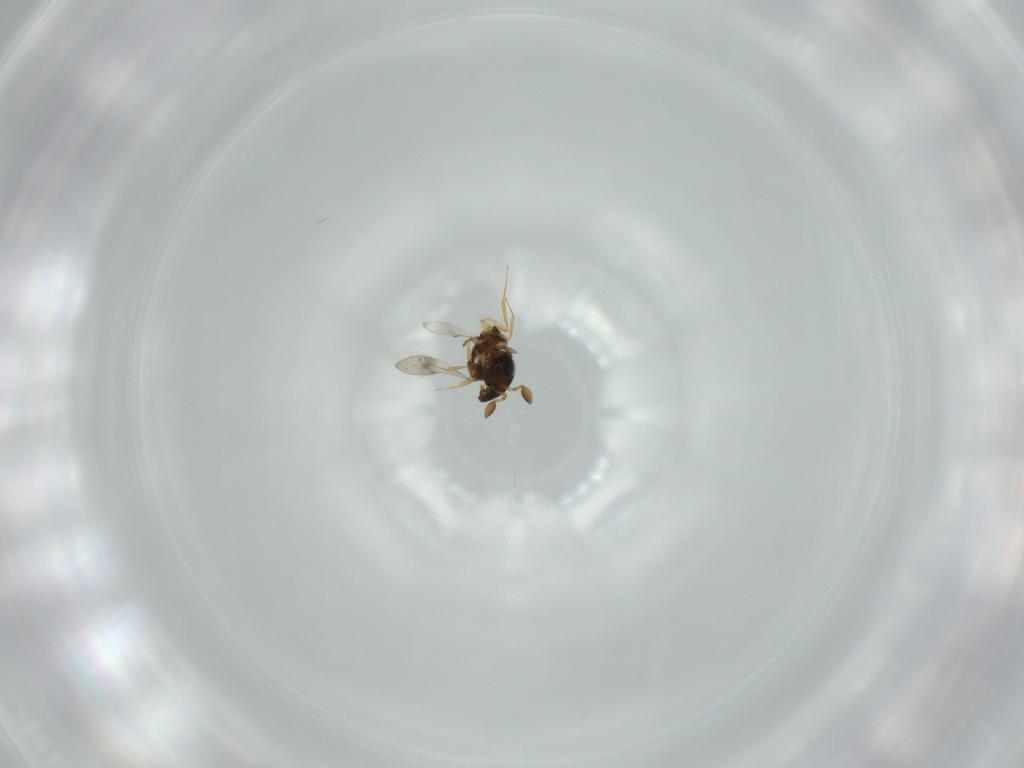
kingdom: Animalia
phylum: Arthropoda
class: Insecta
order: Hymenoptera
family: Scelionidae
